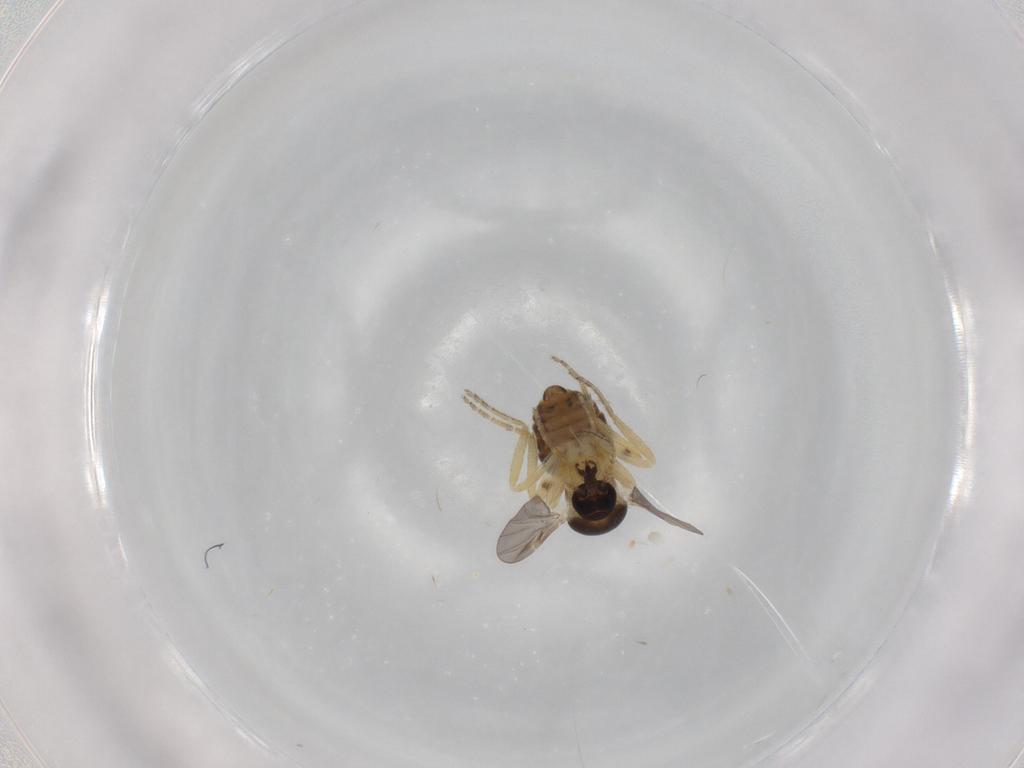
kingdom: Animalia
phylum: Arthropoda
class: Insecta
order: Diptera
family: Ceratopogonidae
